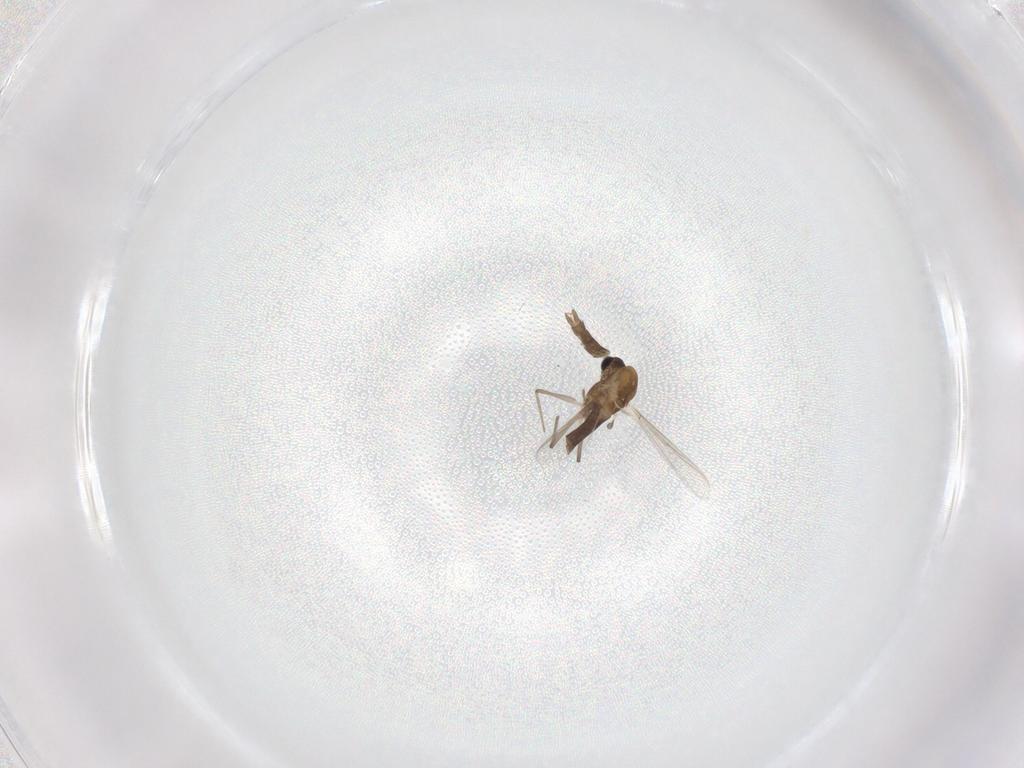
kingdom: Animalia
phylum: Arthropoda
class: Insecta
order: Diptera
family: Chironomidae
